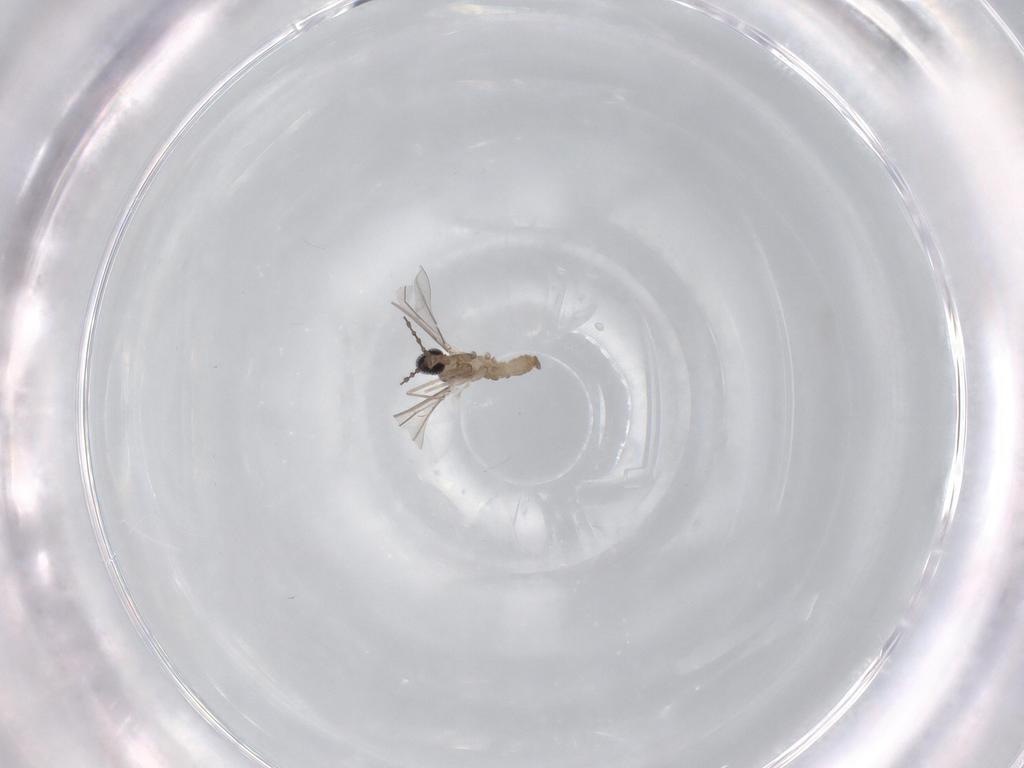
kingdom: Animalia
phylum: Arthropoda
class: Insecta
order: Diptera
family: Cecidomyiidae
